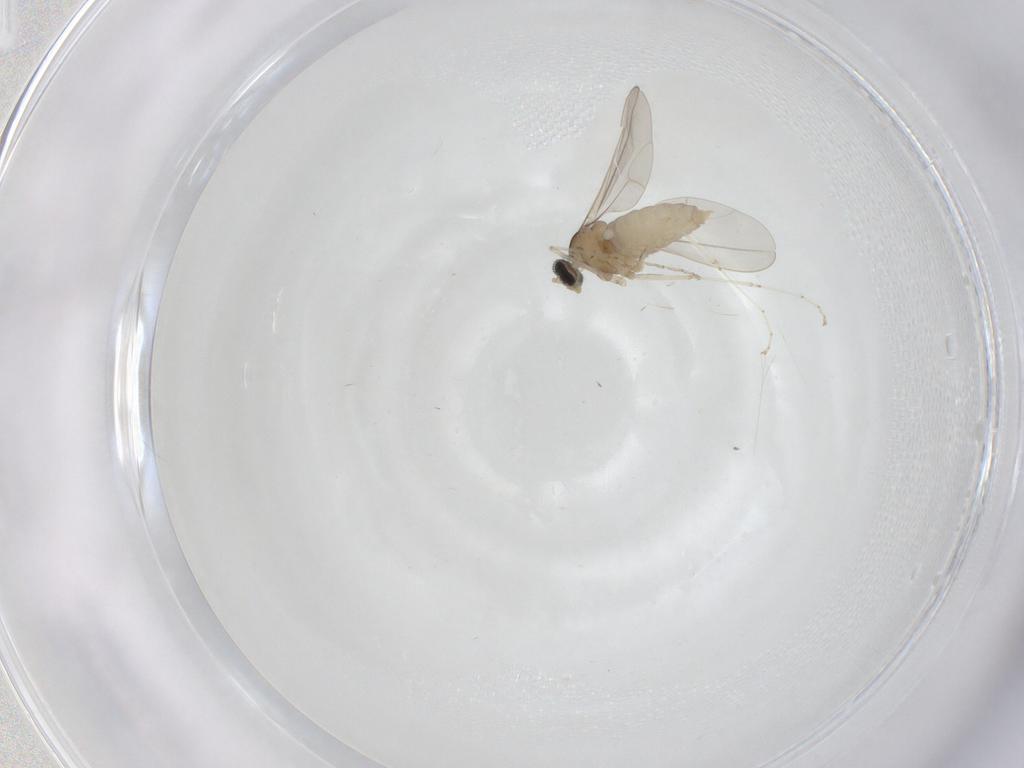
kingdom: Animalia
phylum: Arthropoda
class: Insecta
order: Diptera
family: Cecidomyiidae
